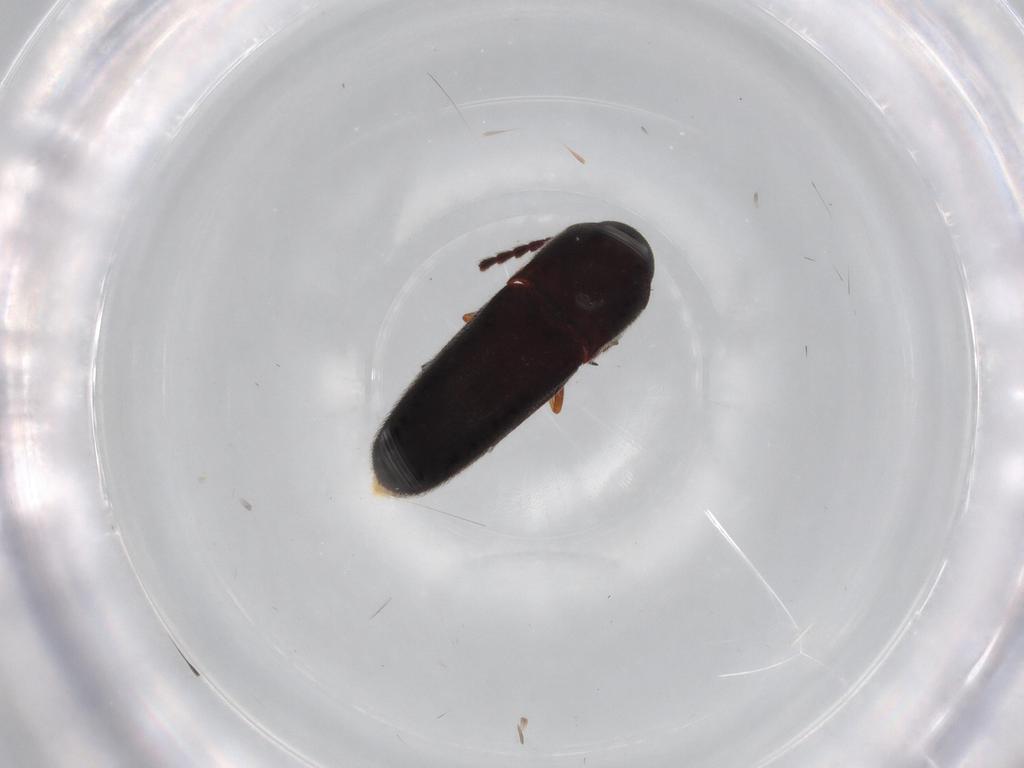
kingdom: Animalia
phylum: Arthropoda
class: Insecta
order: Coleoptera
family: Eucnemidae
